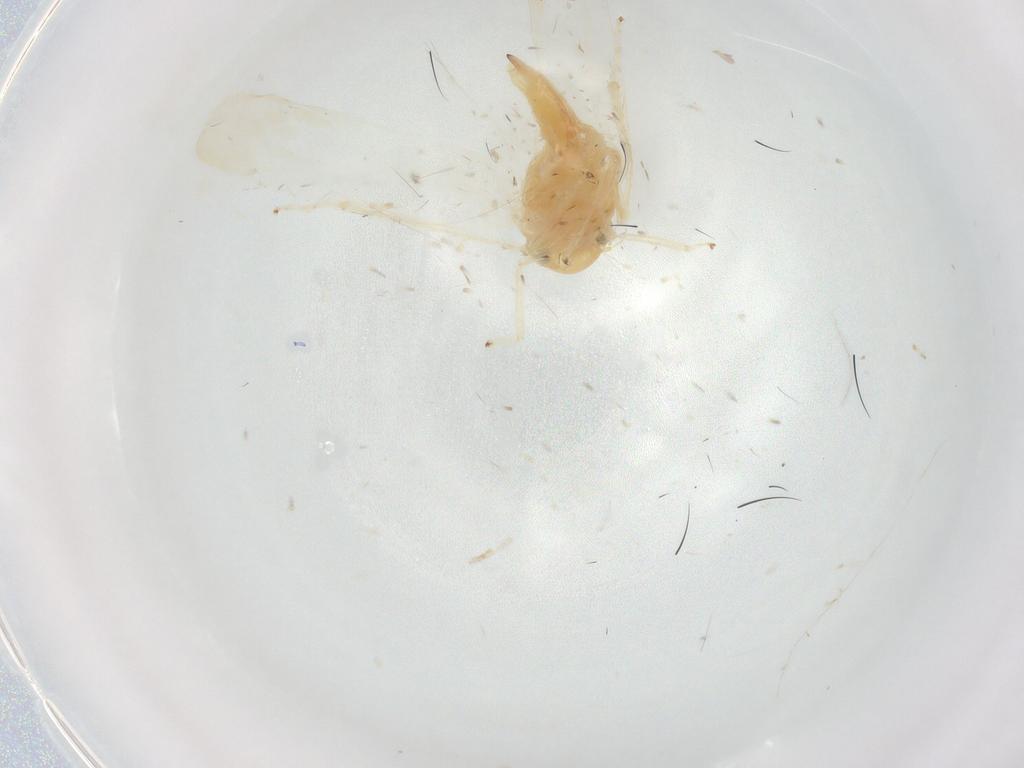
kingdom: Animalia
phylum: Arthropoda
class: Insecta
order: Hemiptera
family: Cicadellidae
